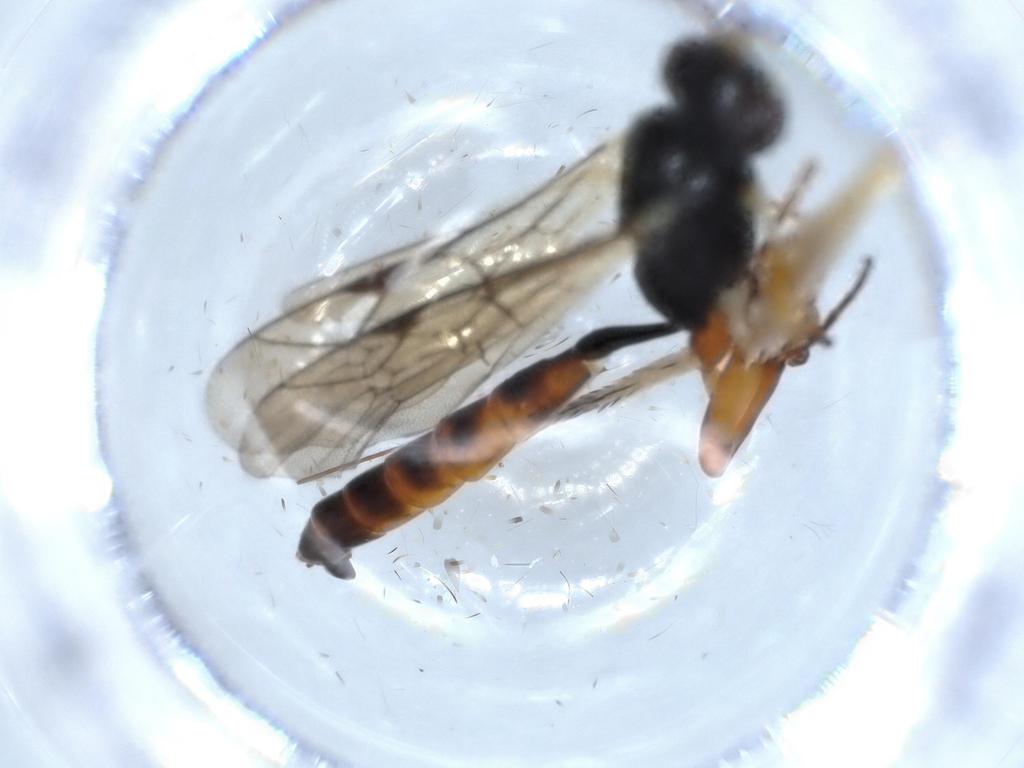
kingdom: Animalia
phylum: Arthropoda
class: Insecta
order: Hymenoptera
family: Ichneumonidae
